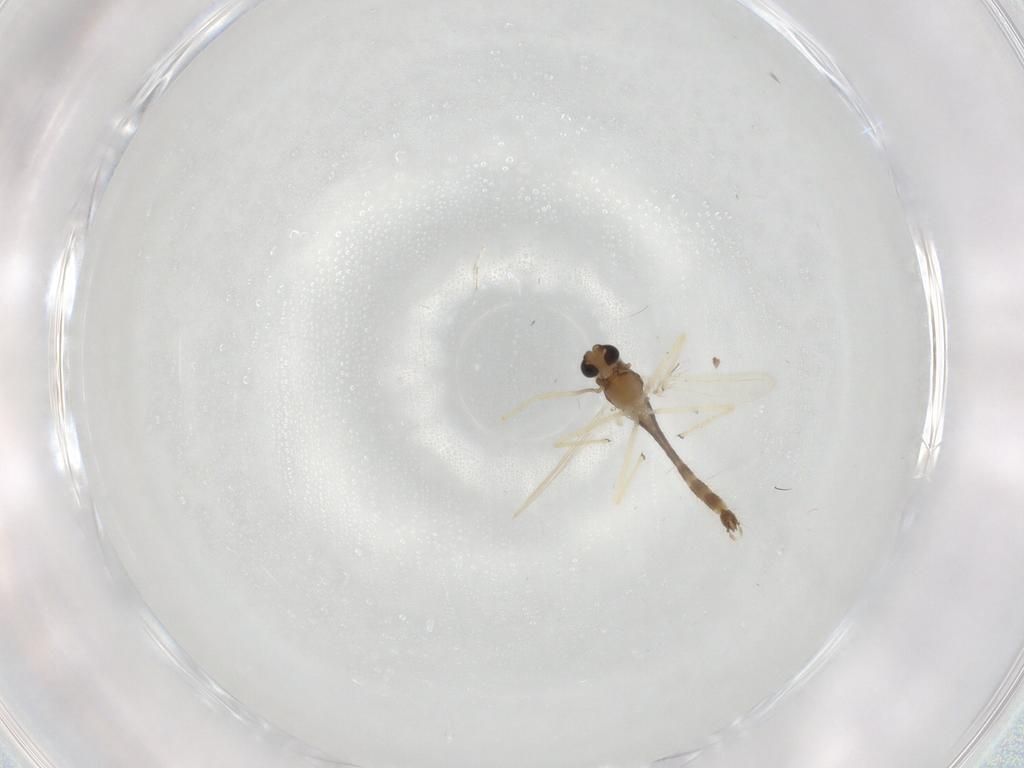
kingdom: Animalia
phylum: Arthropoda
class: Insecta
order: Diptera
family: Chironomidae
